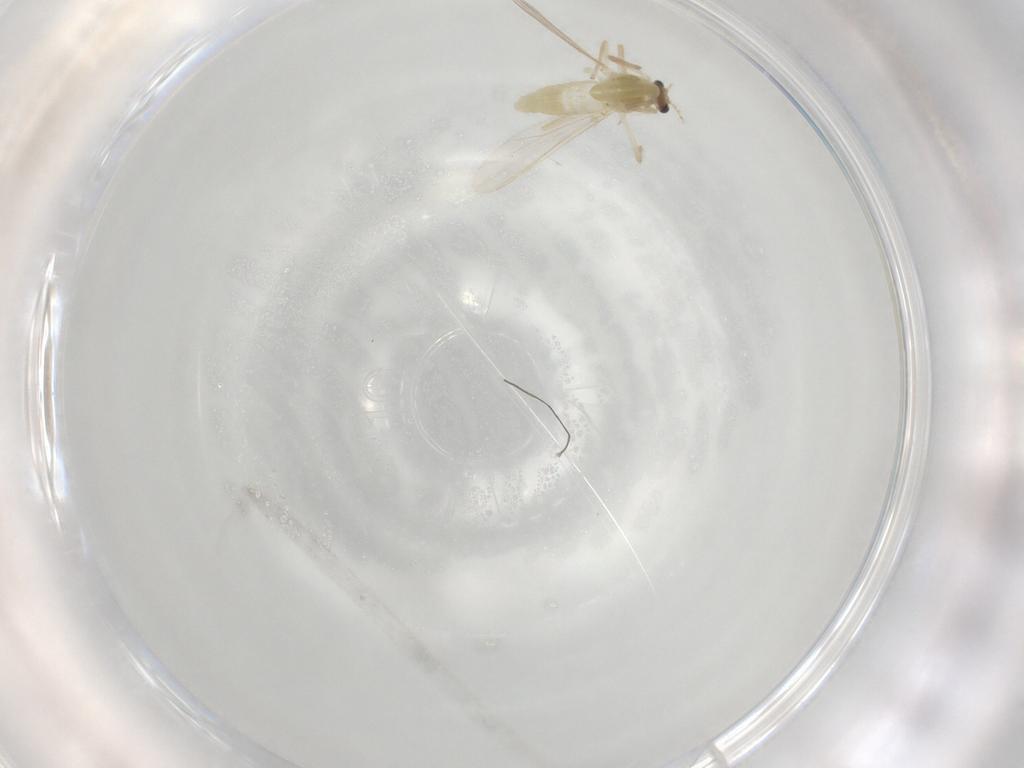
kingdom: Animalia
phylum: Arthropoda
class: Insecta
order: Diptera
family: Chironomidae
